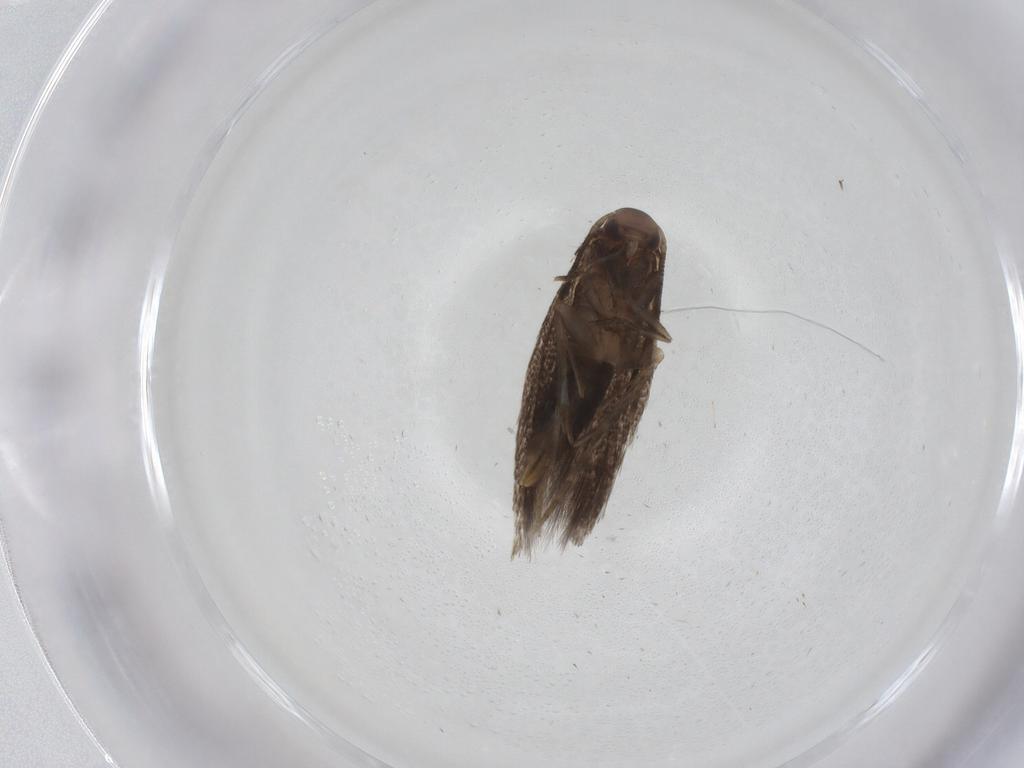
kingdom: Animalia
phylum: Arthropoda
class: Insecta
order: Lepidoptera
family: Elachistidae
